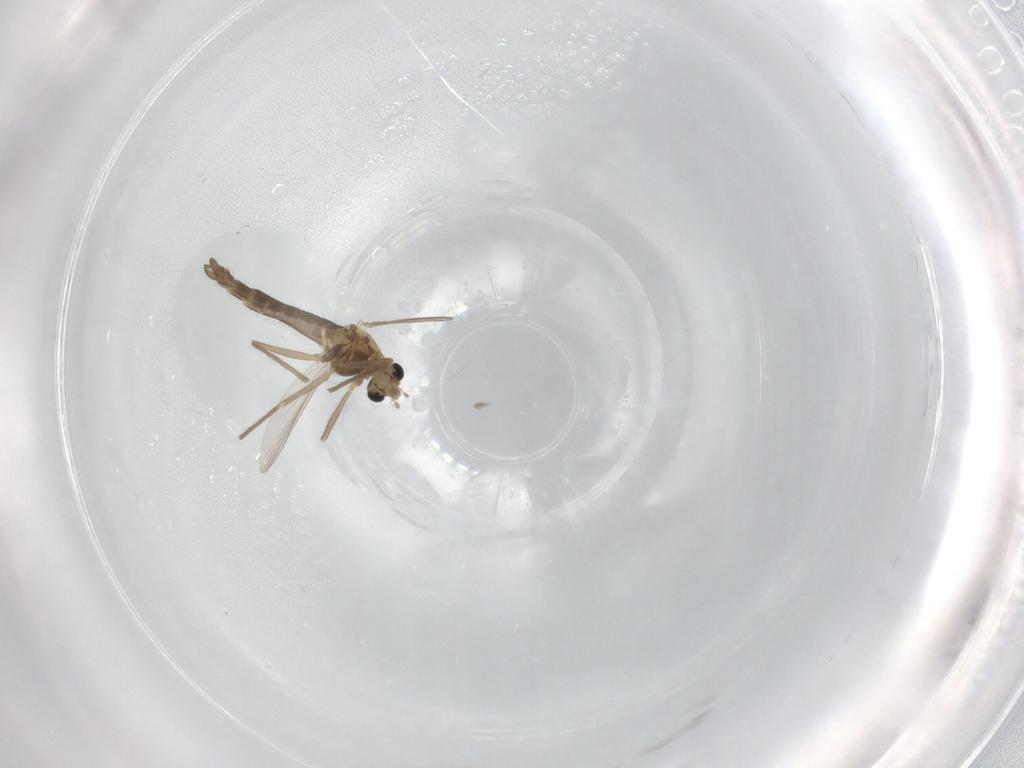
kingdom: Animalia
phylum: Arthropoda
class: Insecta
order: Diptera
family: Chironomidae
